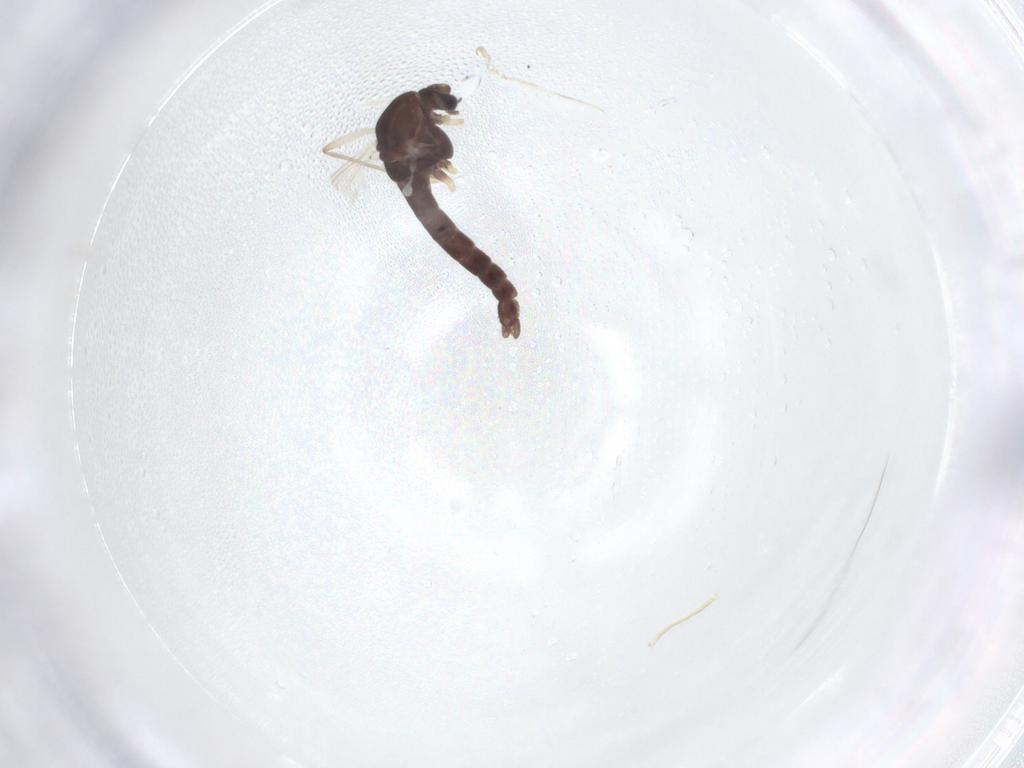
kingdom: Animalia
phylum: Arthropoda
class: Insecta
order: Diptera
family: Chironomidae
